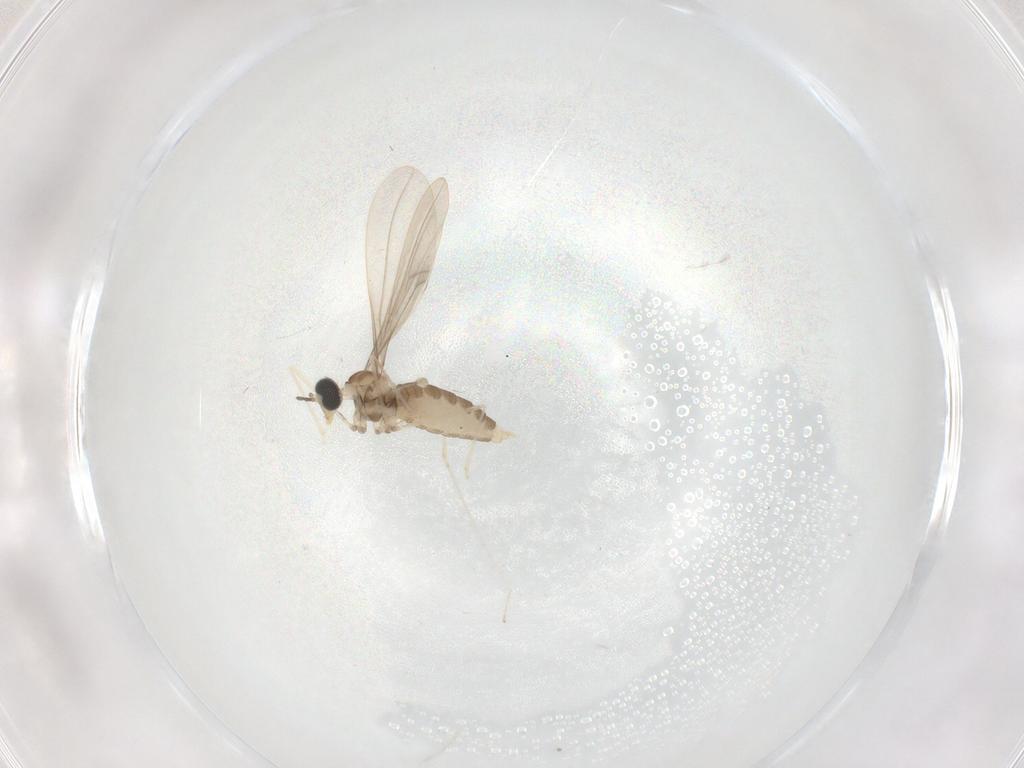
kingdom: Animalia
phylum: Arthropoda
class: Insecta
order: Diptera
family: Cecidomyiidae
